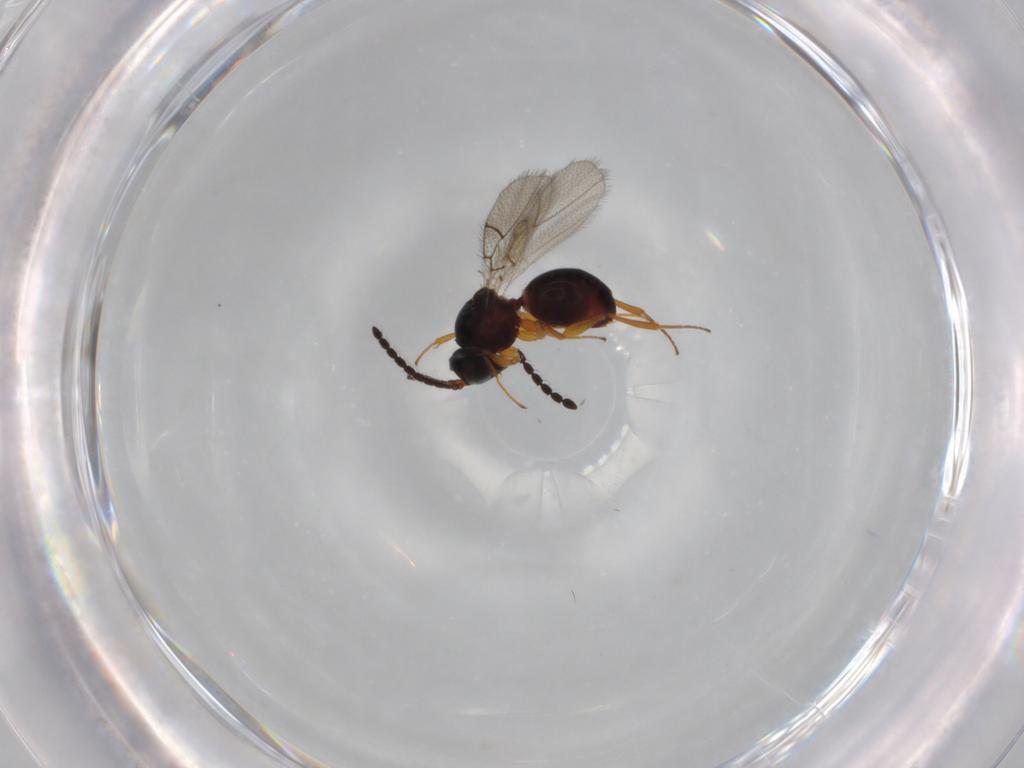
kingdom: Animalia
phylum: Arthropoda
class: Insecta
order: Hymenoptera
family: Figitidae
